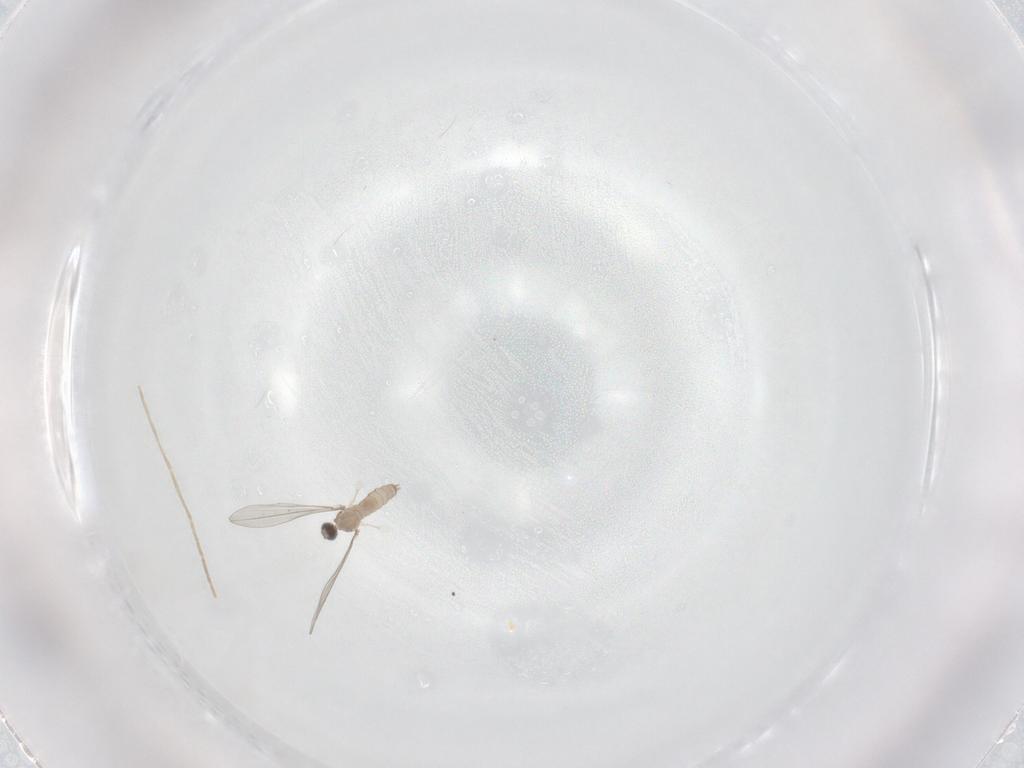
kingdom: Animalia
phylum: Arthropoda
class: Insecta
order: Diptera
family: Cecidomyiidae
